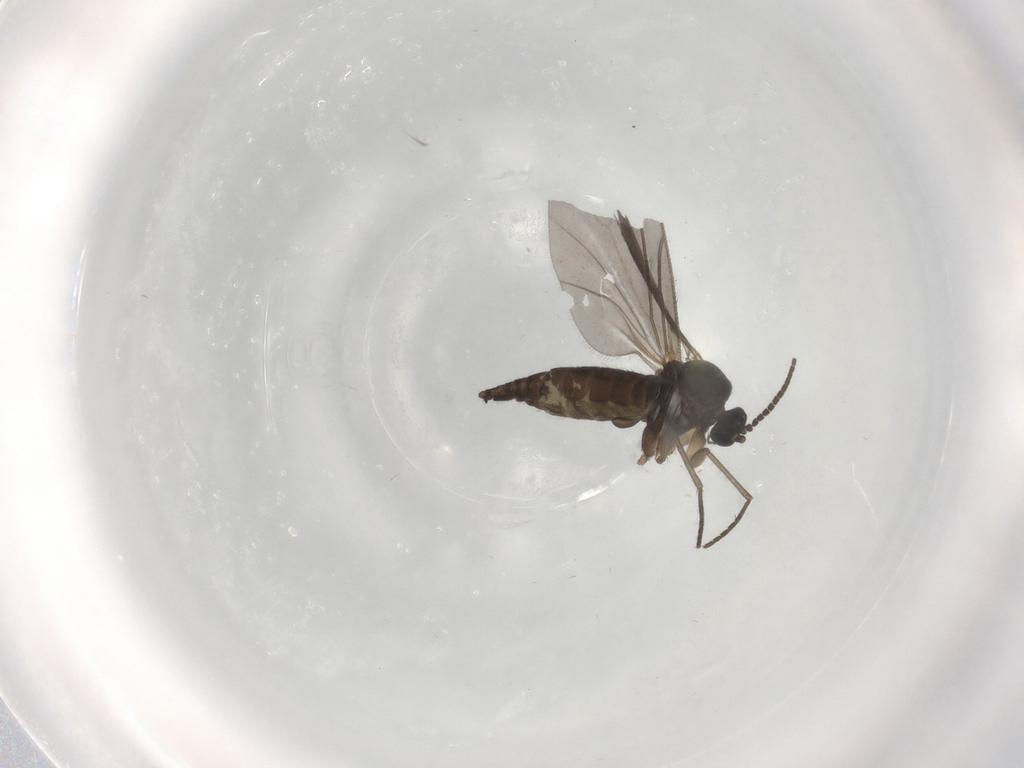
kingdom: Animalia
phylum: Arthropoda
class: Insecta
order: Diptera
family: Sciaridae
